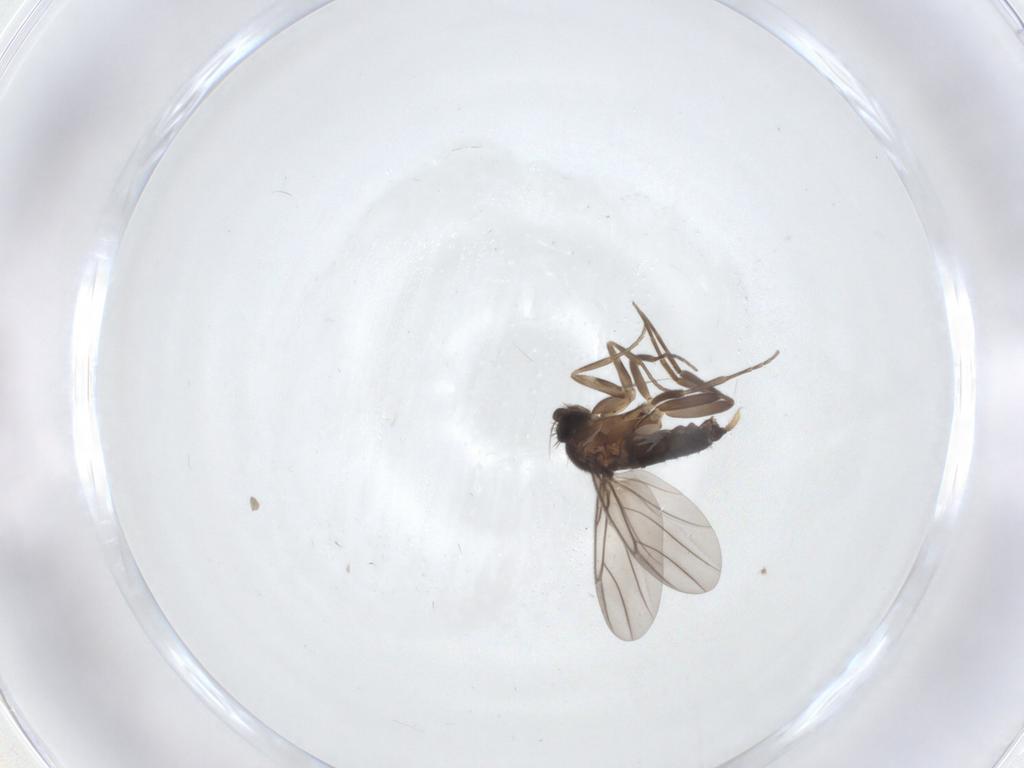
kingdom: Animalia
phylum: Arthropoda
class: Insecta
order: Diptera
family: Phoridae
